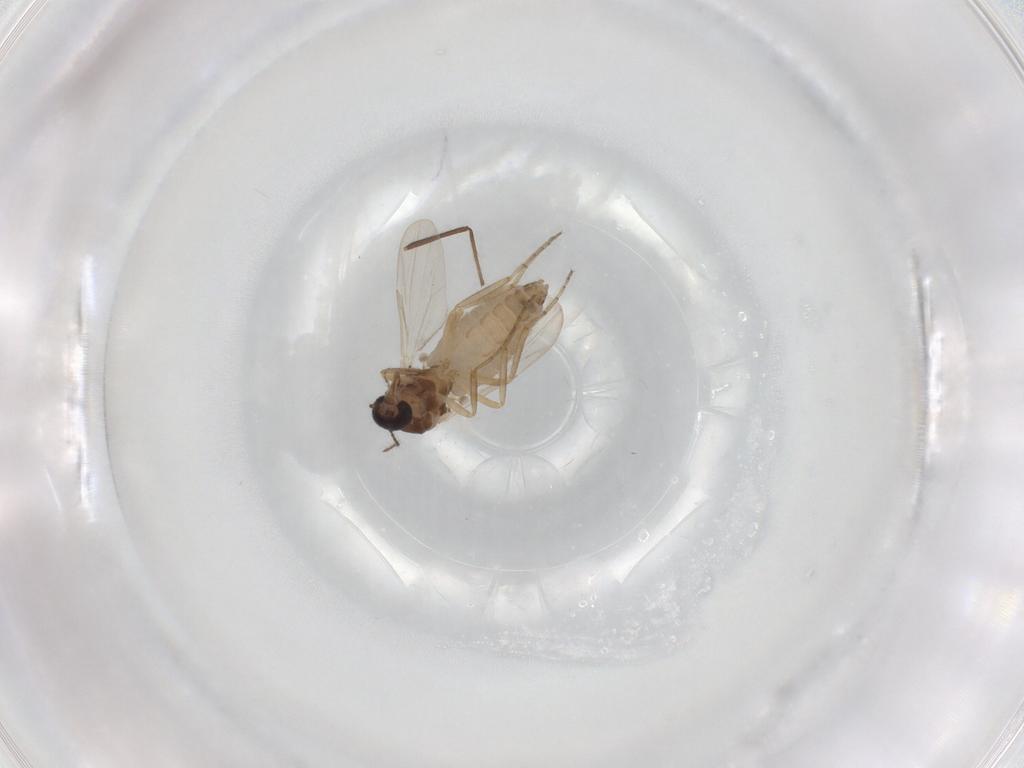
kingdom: Animalia
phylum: Arthropoda
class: Insecta
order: Diptera
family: Ceratopogonidae
